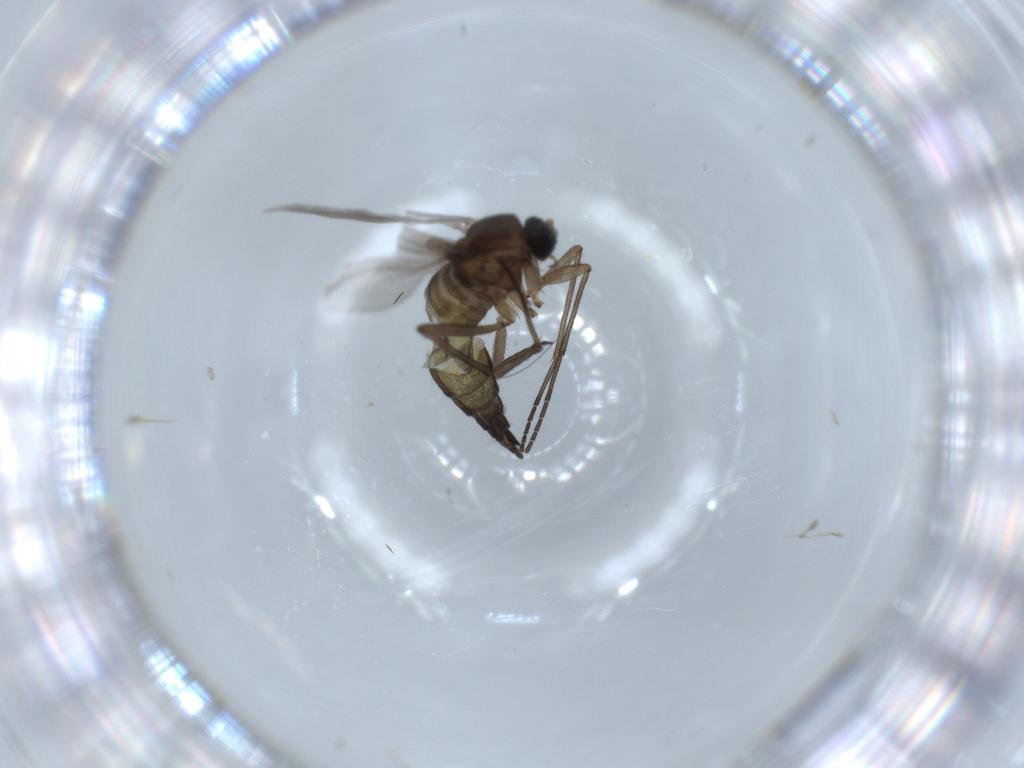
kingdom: Animalia
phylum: Arthropoda
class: Insecta
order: Diptera
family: Sciaridae
